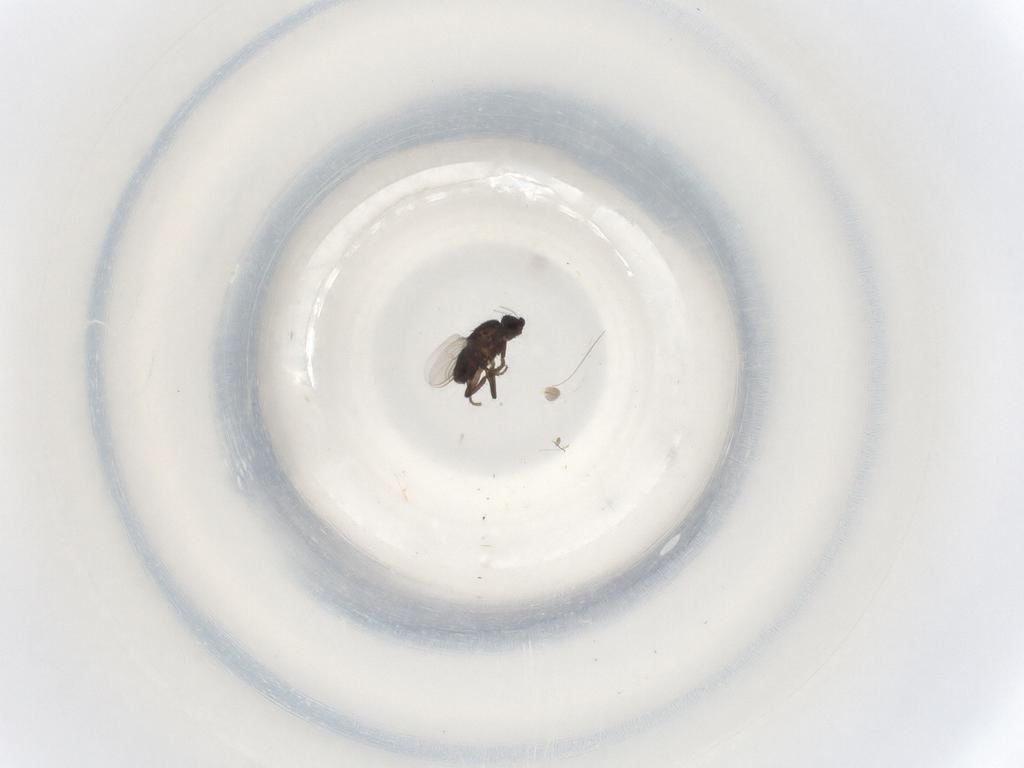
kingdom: Animalia
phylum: Arthropoda
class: Insecta
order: Diptera
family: Sphaeroceridae
